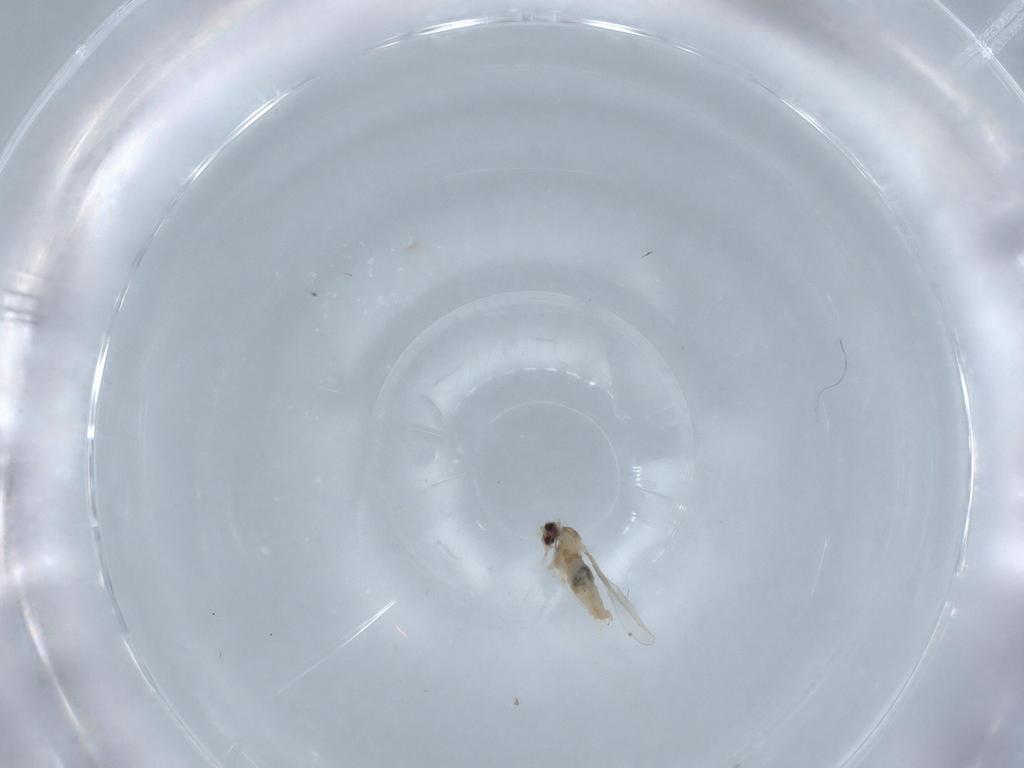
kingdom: Animalia
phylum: Arthropoda
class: Insecta
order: Diptera
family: Cecidomyiidae
